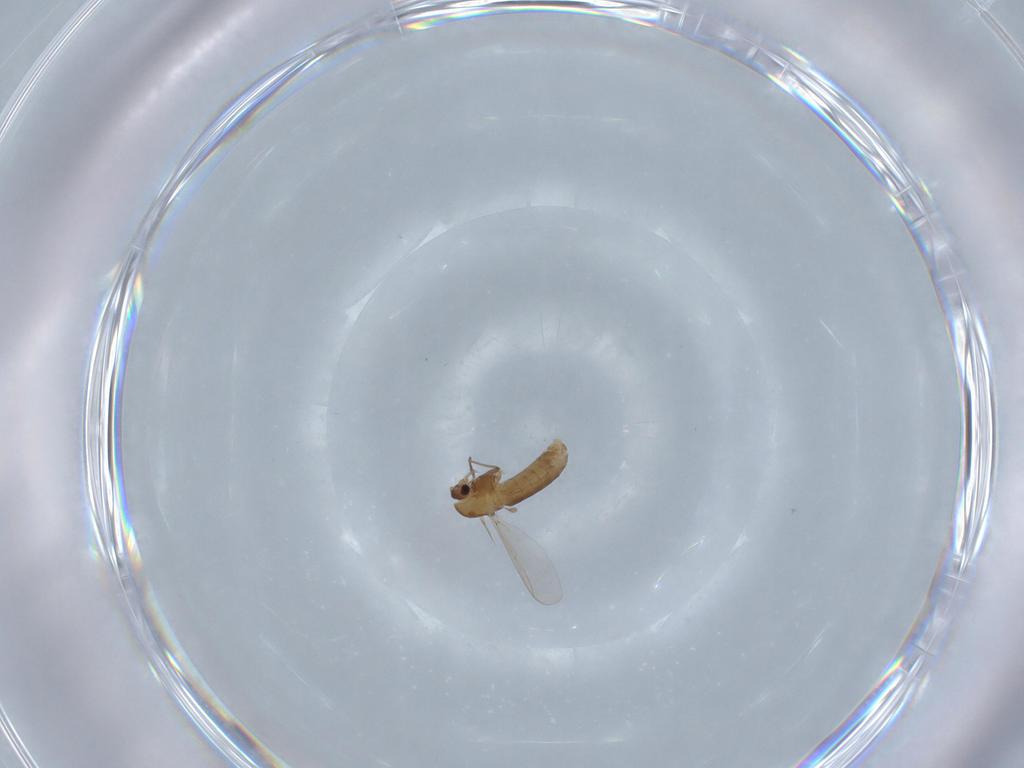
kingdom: Animalia
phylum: Arthropoda
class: Insecta
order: Diptera
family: Chironomidae
